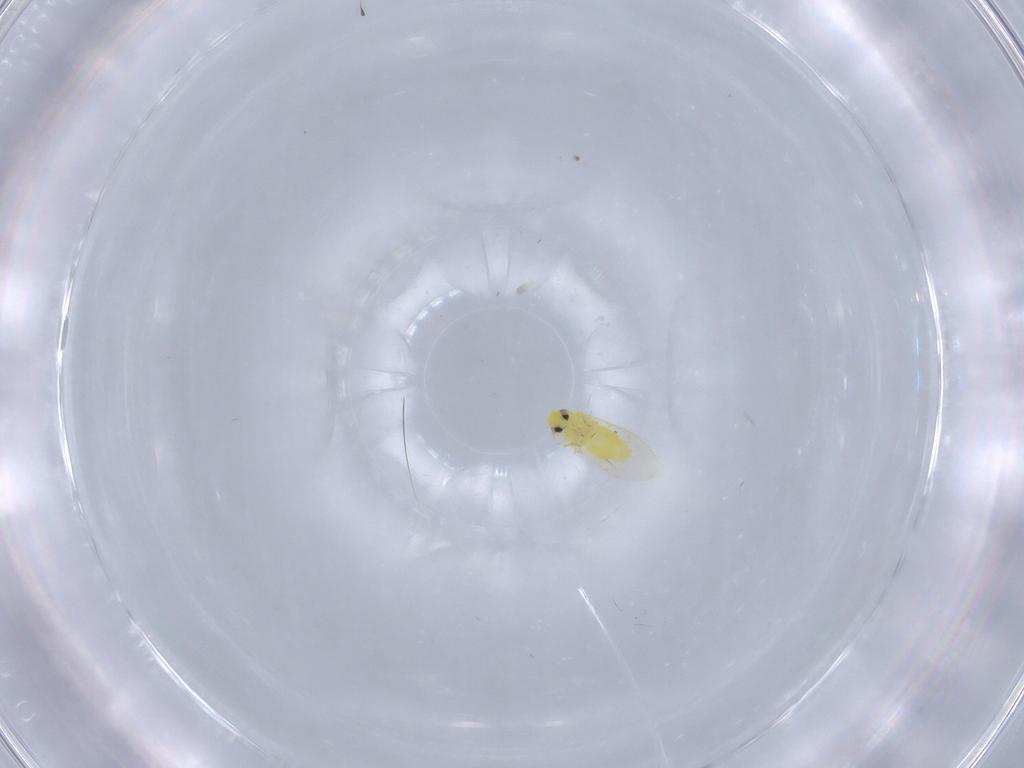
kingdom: Animalia
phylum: Arthropoda
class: Insecta
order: Hemiptera
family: Aleyrodidae
